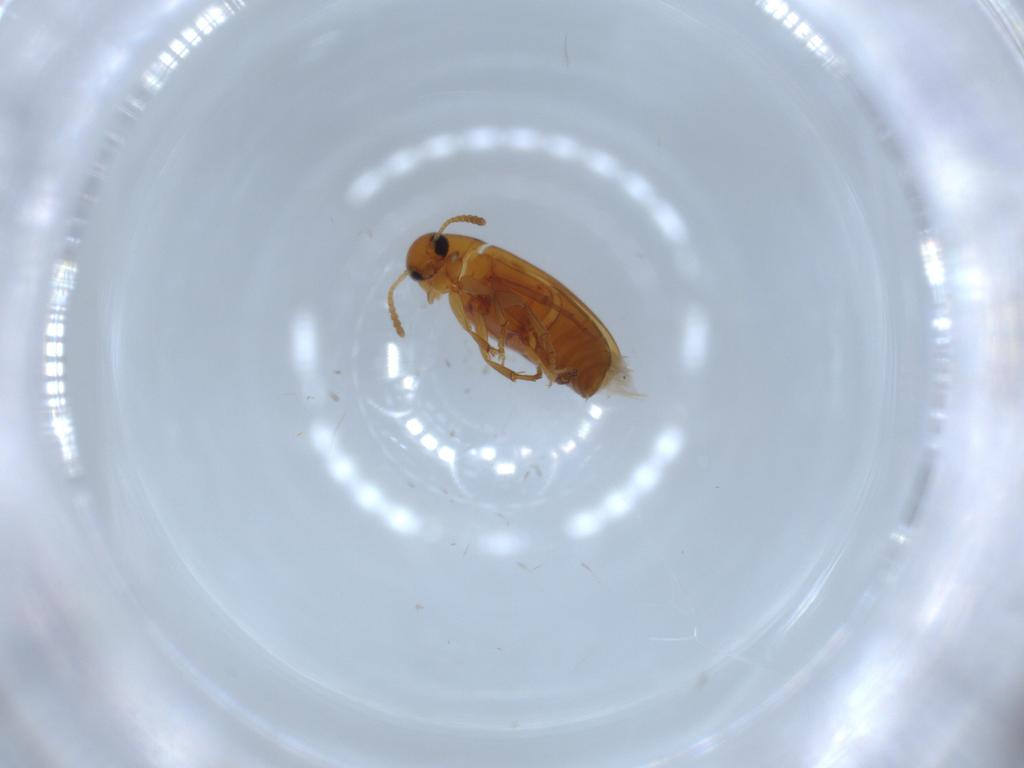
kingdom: Animalia
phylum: Arthropoda
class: Insecta
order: Coleoptera
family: Scraptiidae
